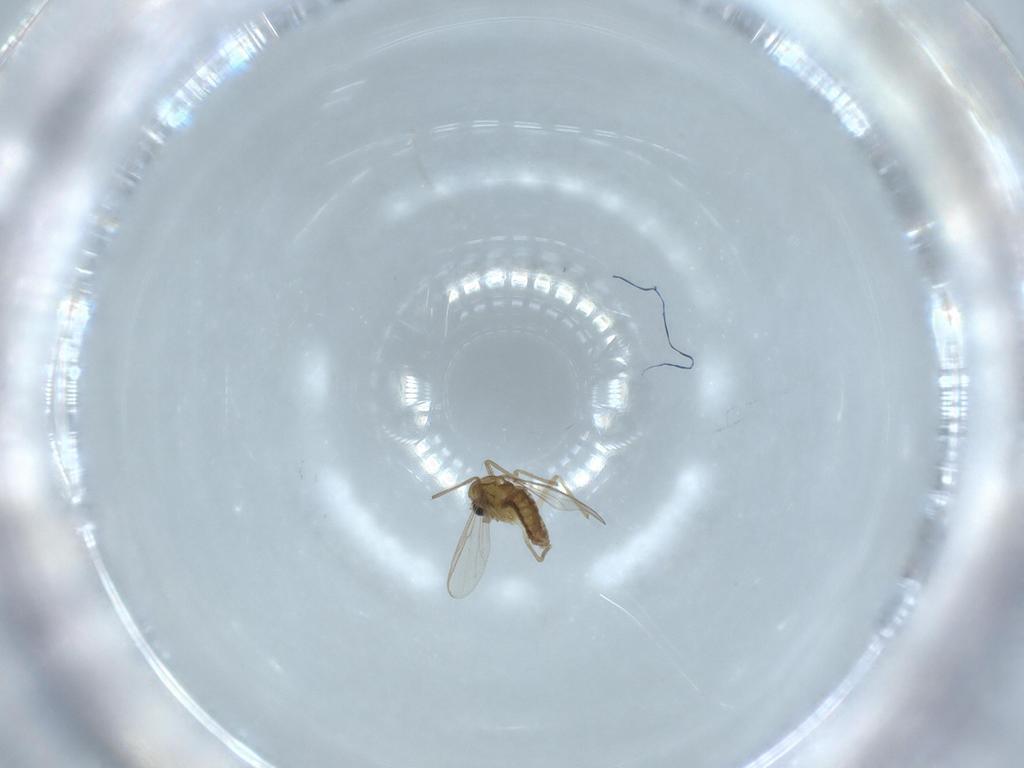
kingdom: Animalia
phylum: Arthropoda
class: Insecta
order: Diptera
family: Chironomidae
